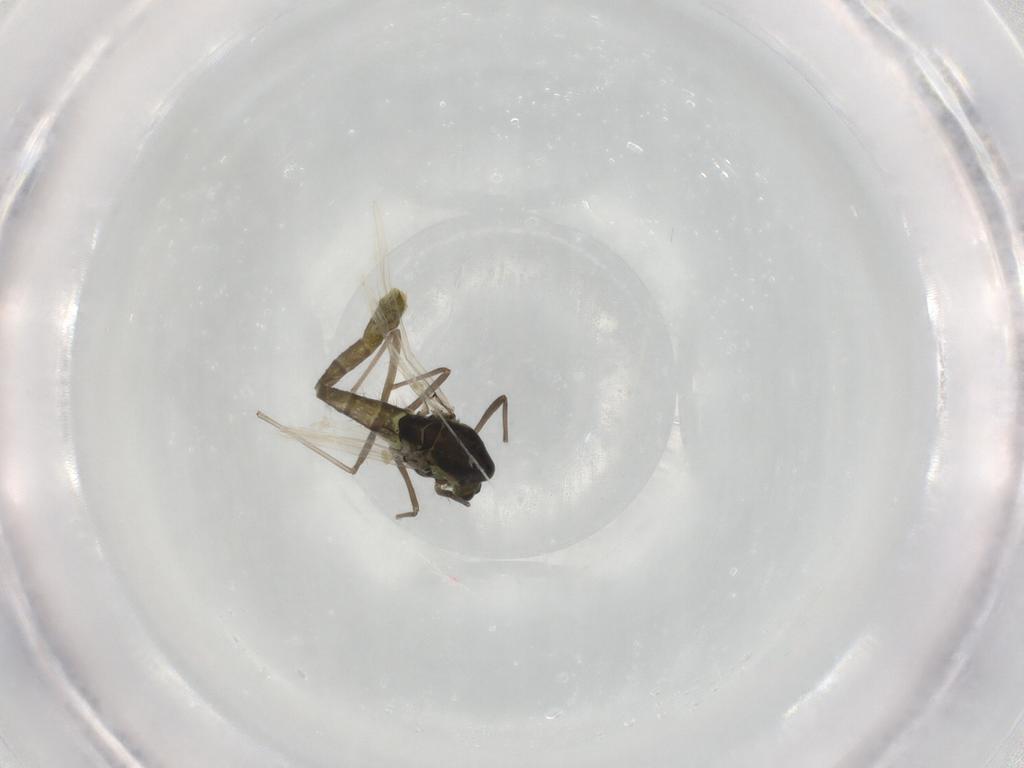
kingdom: Animalia
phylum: Arthropoda
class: Insecta
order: Diptera
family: Chironomidae
